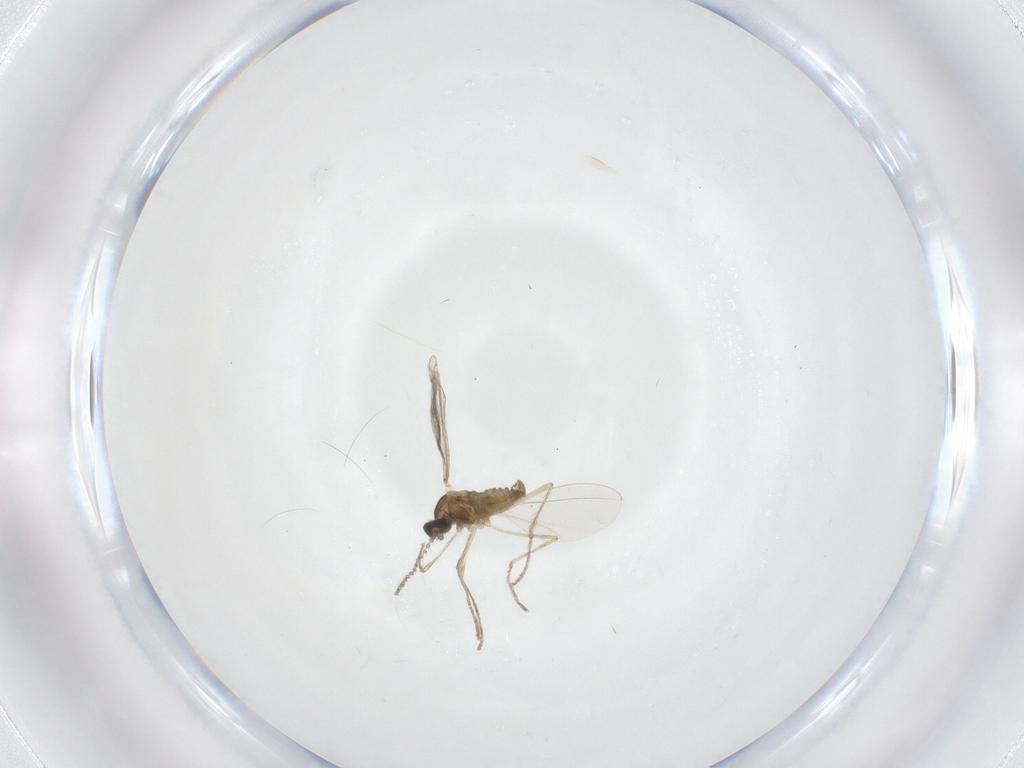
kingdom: Animalia
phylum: Arthropoda
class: Insecta
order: Diptera
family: Cecidomyiidae
